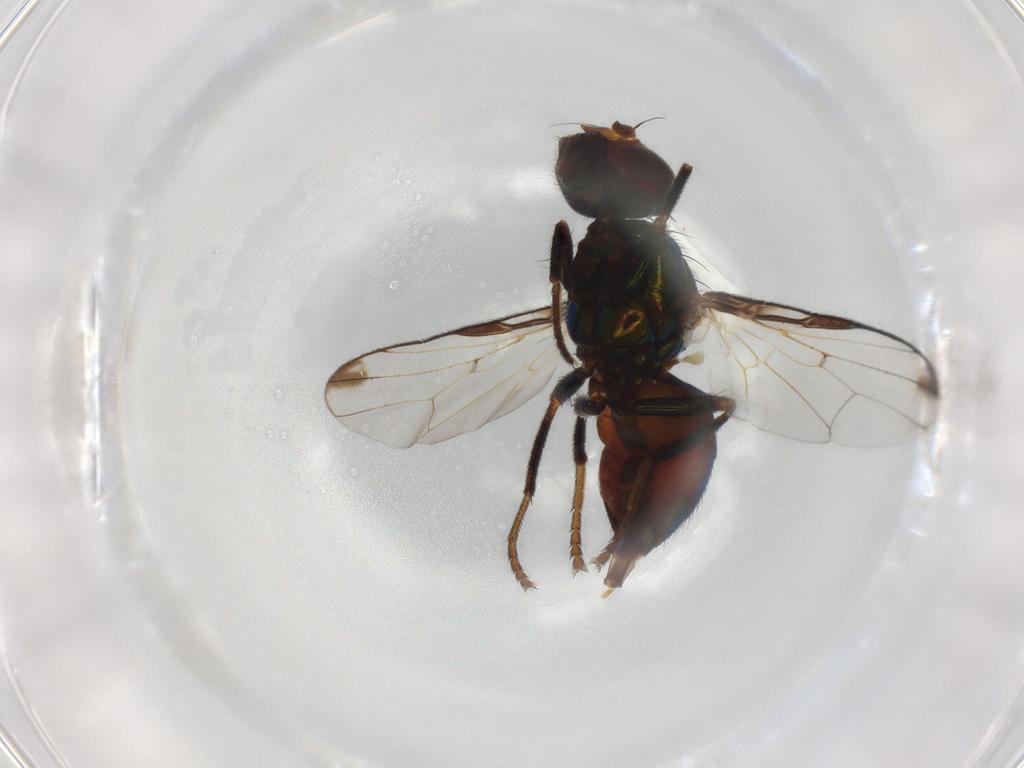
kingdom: Animalia
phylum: Arthropoda
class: Insecta
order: Diptera
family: Platystomatidae
